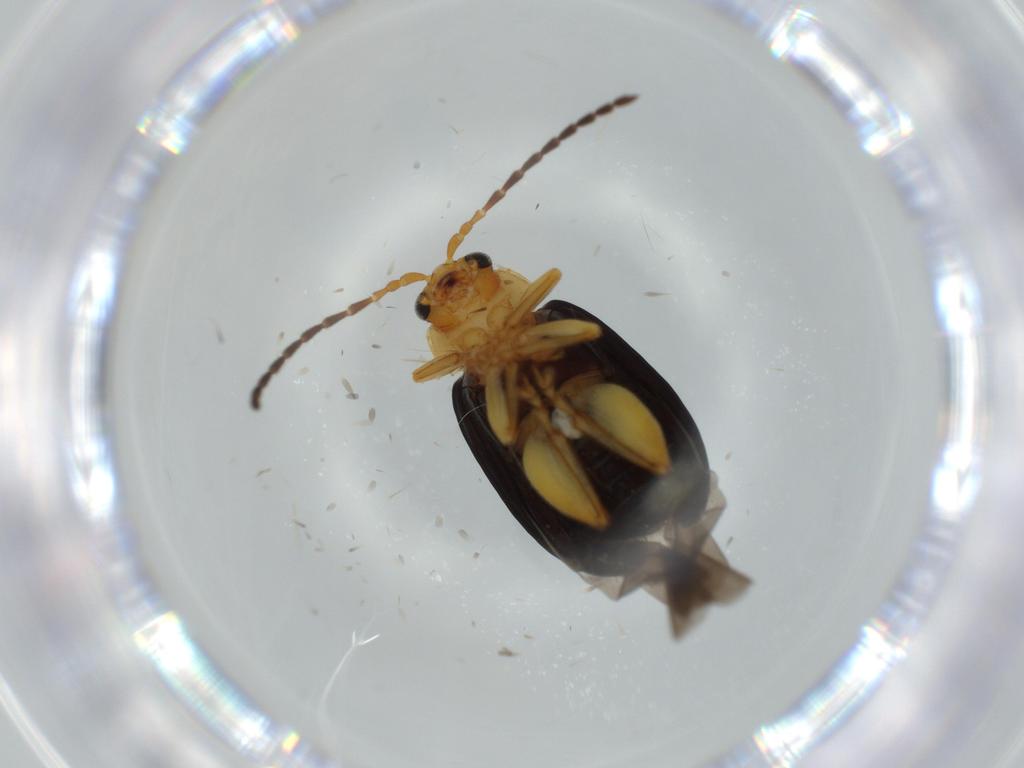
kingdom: Animalia
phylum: Arthropoda
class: Insecta
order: Coleoptera
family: Chrysomelidae
